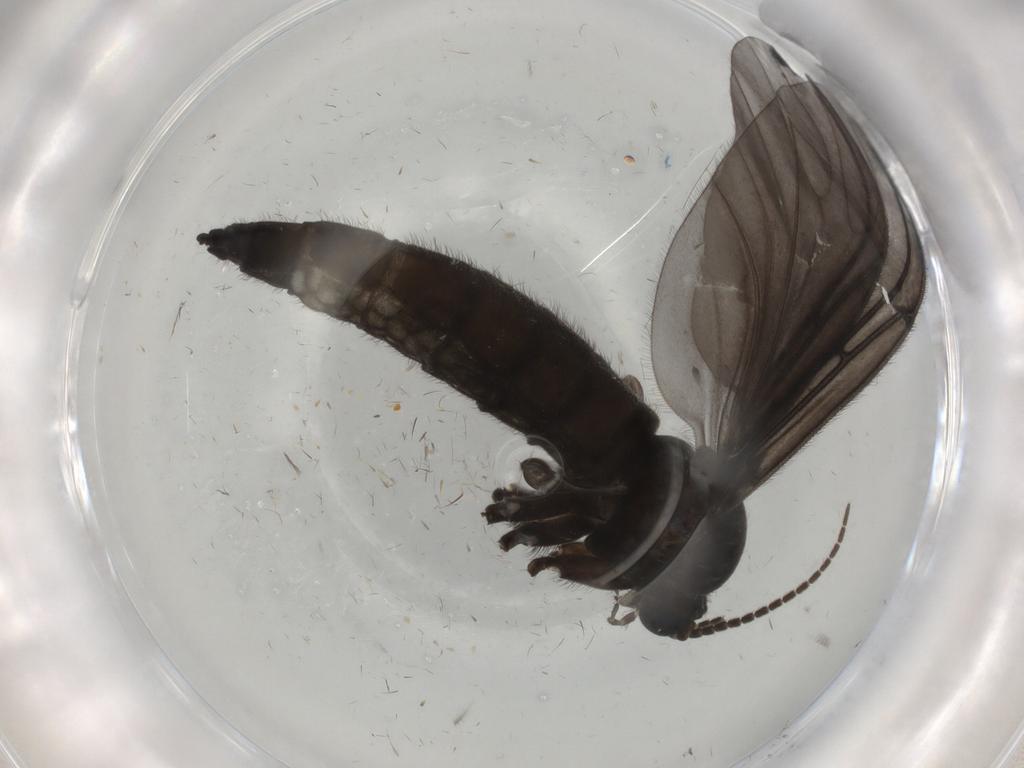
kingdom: Animalia
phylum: Arthropoda
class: Insecta
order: Diptera
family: Sciaridae
